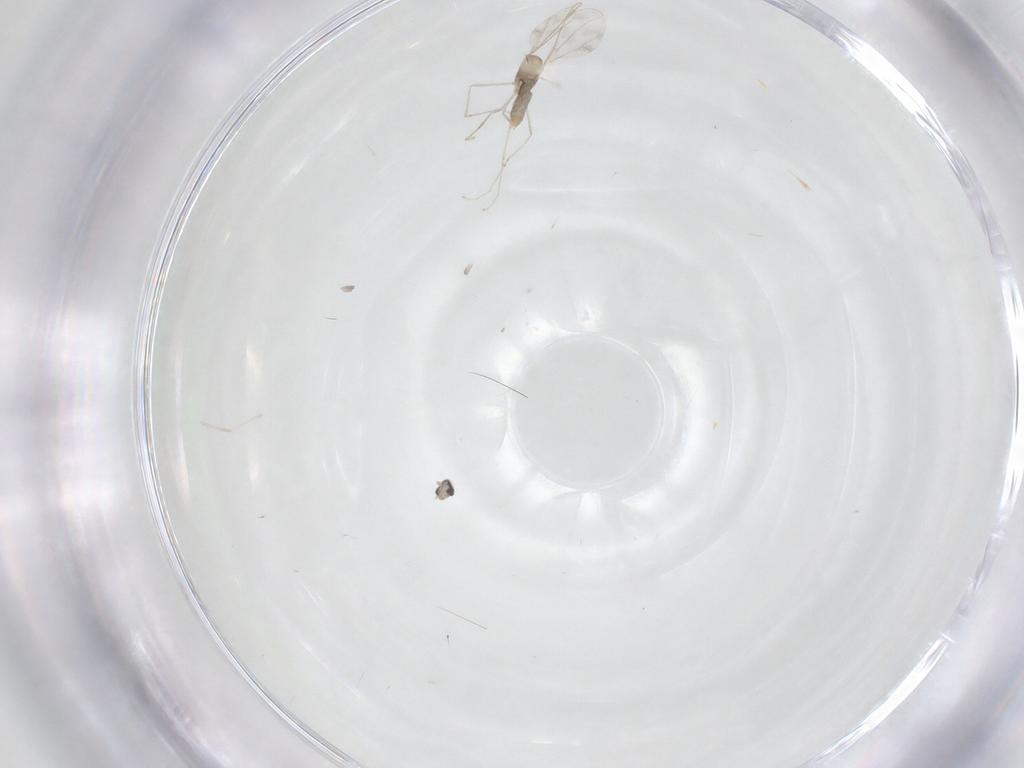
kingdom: Animalia
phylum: Arthropoda
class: Insecta
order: Diptera
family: Cecidomyiidae
